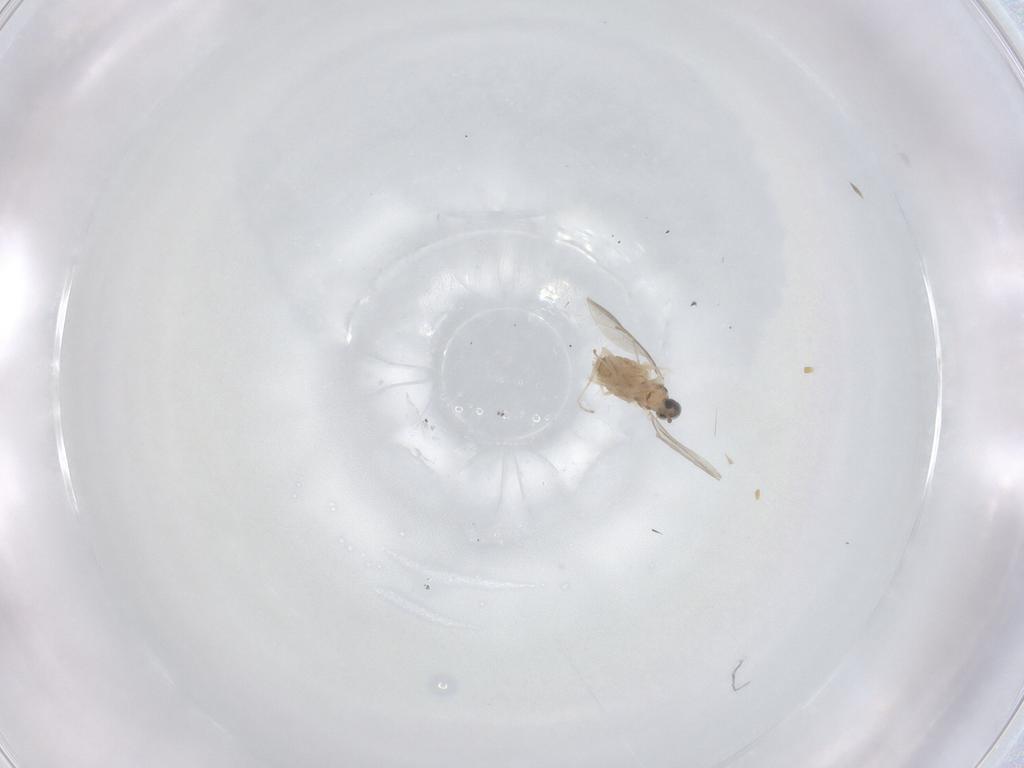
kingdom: Animalia
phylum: Arthropoda
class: Insecta
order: Diptera
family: Cecidomyiidae
